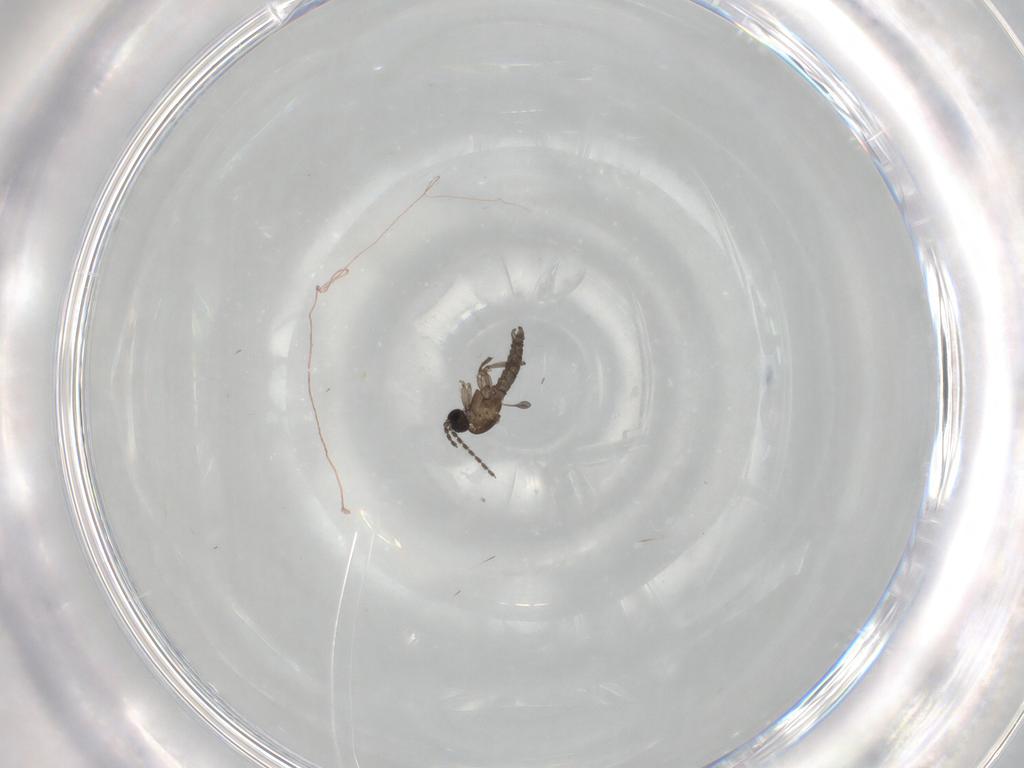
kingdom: Animalia
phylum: Arthropoda
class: Insecta
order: Diptera
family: Sciaridae
